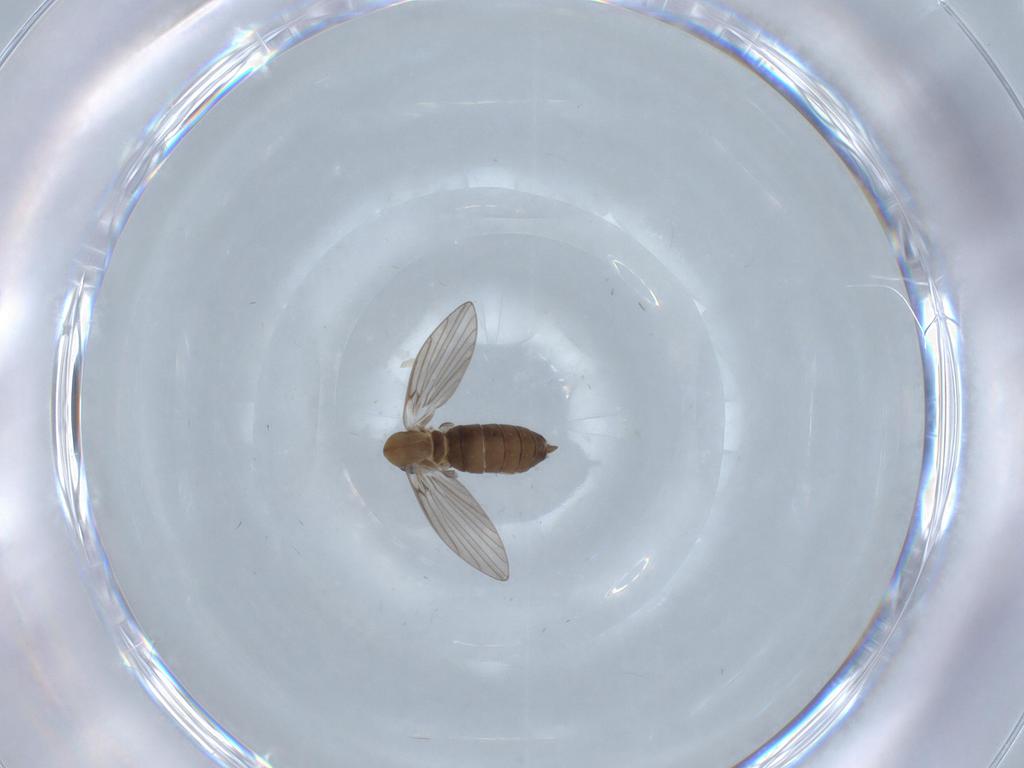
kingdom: Animalia
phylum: Arthropoda
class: Insecta
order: Diptera
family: Psychodidae
